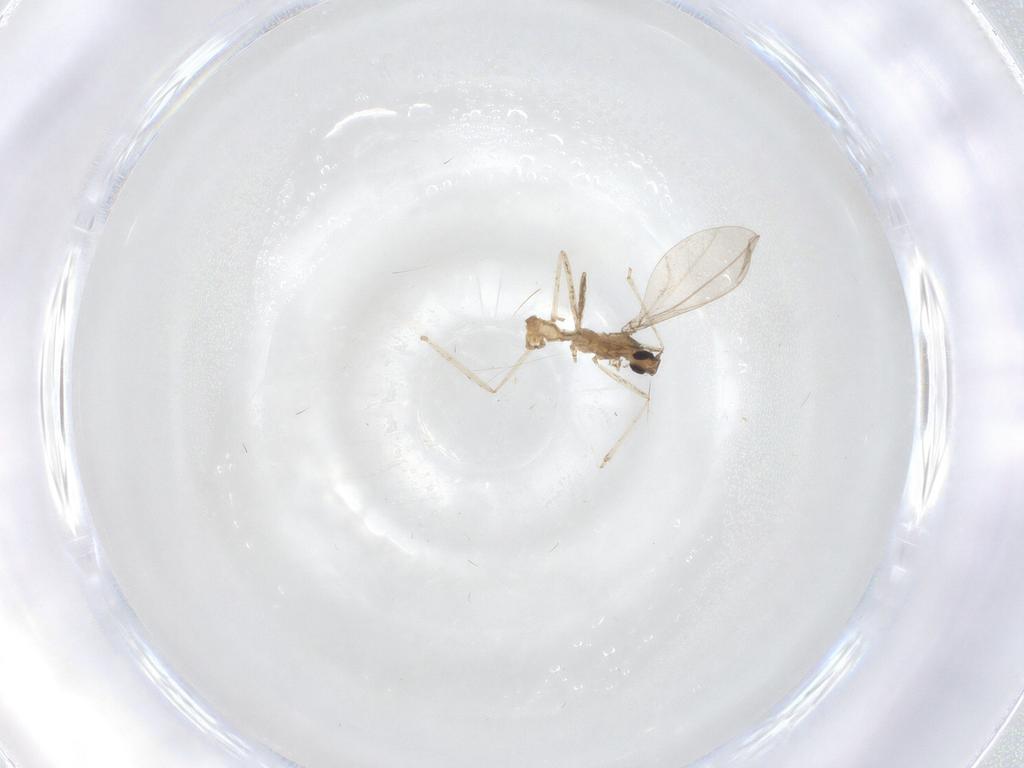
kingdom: Animalia
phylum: Arthropoda
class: Insecta
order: Diptera
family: Cecidomyiidae
